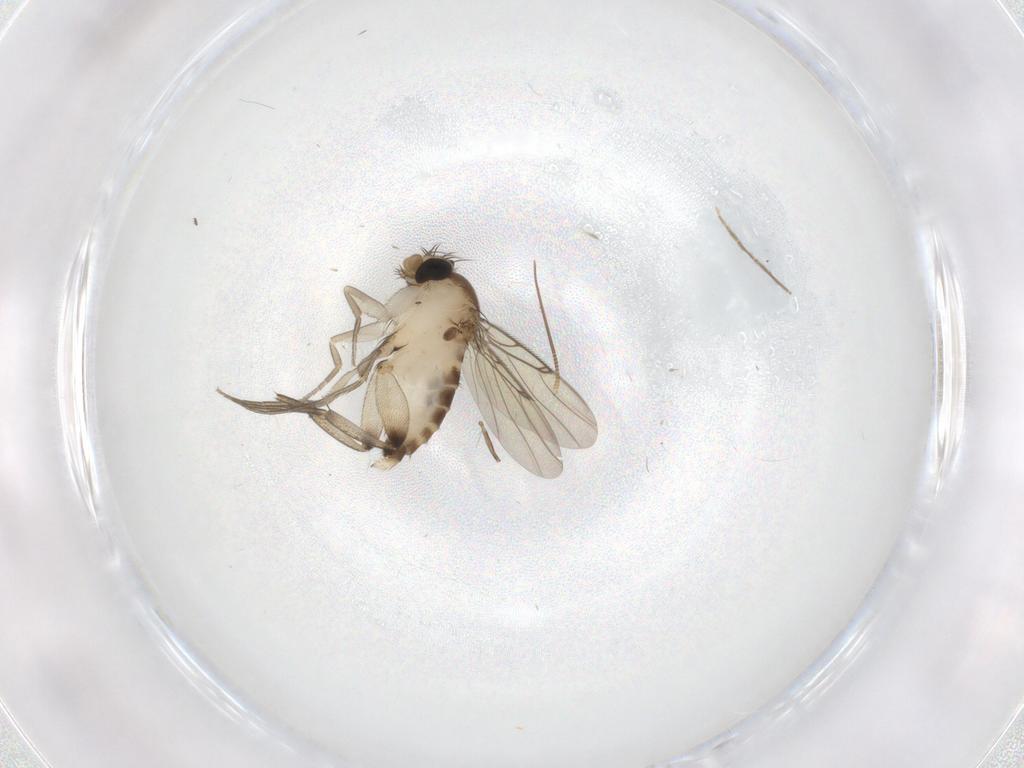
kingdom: Animalia
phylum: Arthropoda
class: Insecta
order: Diptera
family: Phoridae
